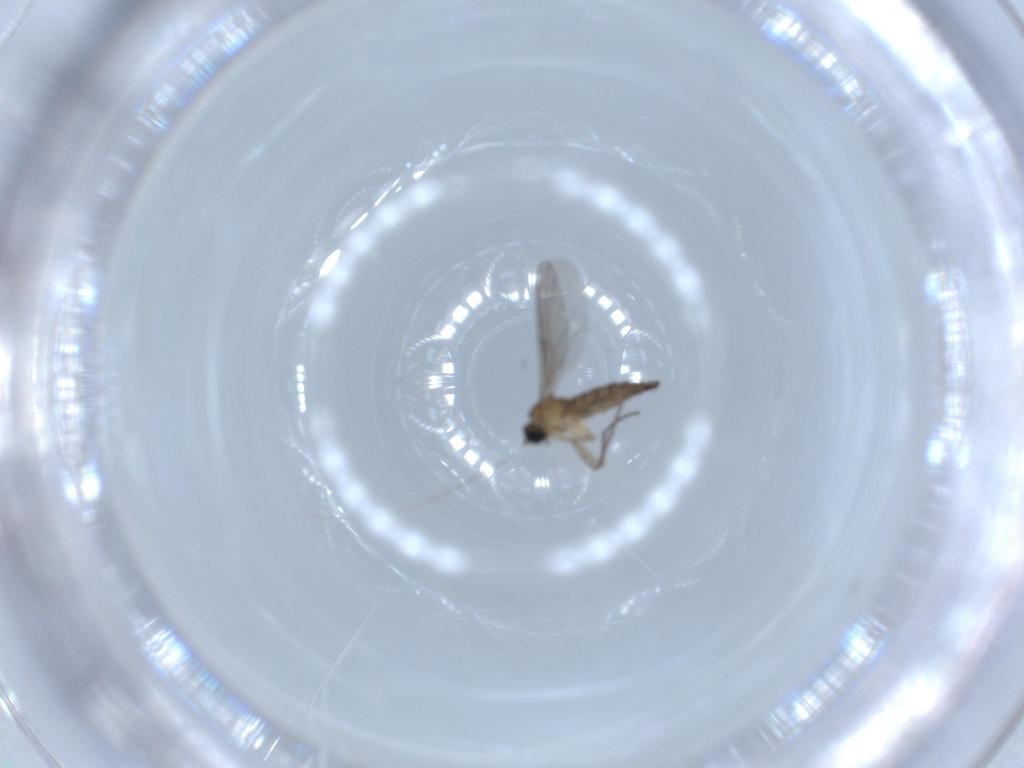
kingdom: Animalia
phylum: Arthropoda
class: Insecta
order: Diptera
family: Sciaridae
